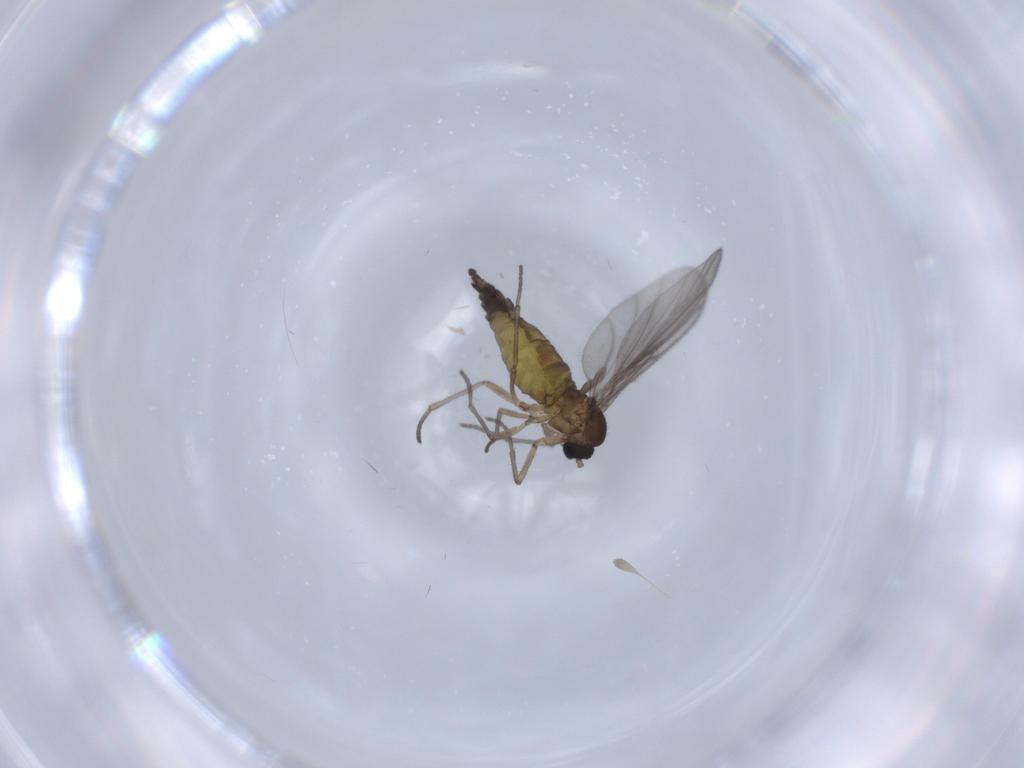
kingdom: Animalia
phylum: Arthropoda
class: Insecta
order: Diptera
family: Sciaridae
